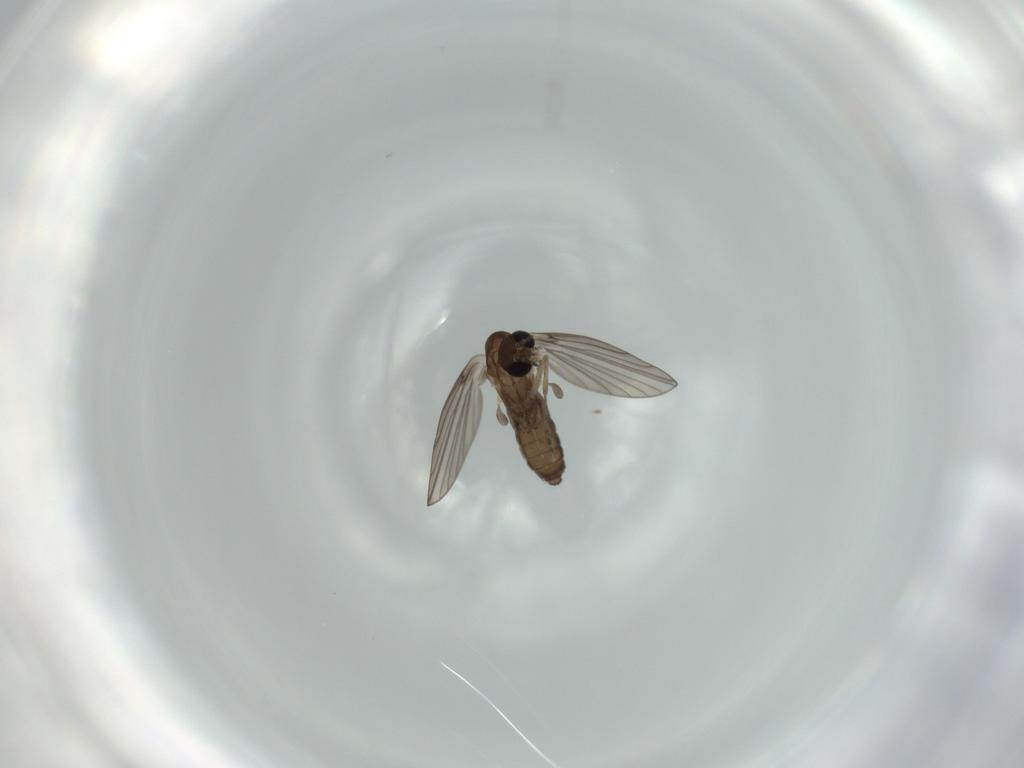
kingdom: Animalia
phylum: Arthropoda
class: Insecta
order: Diptera
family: Psychodidae
